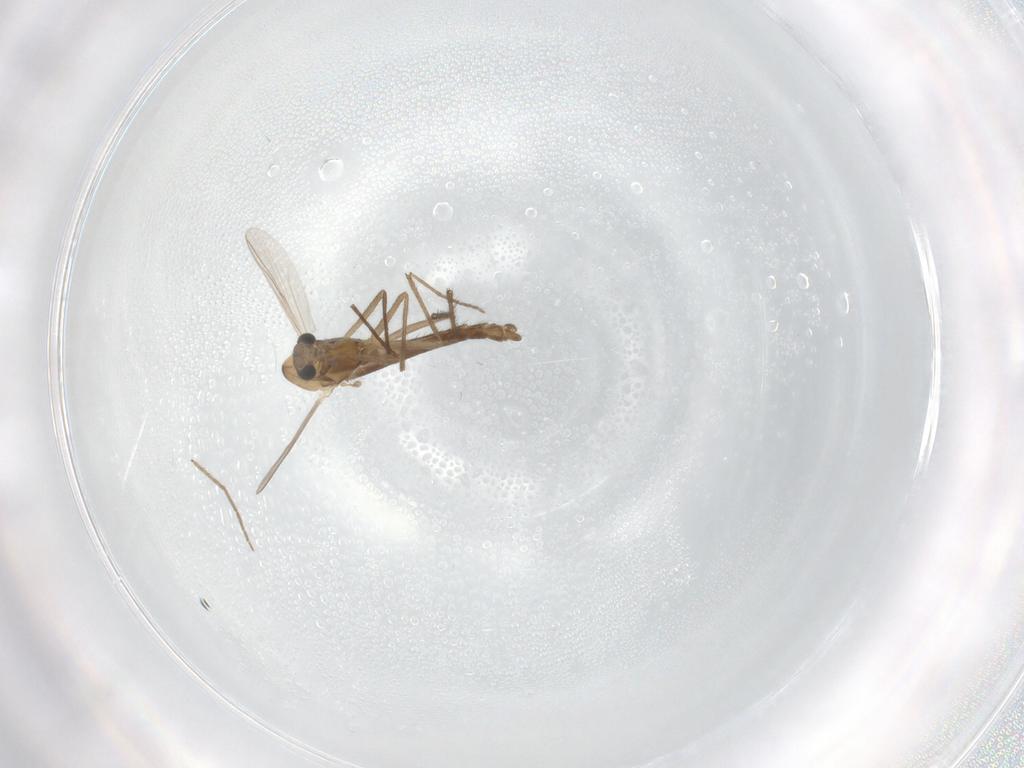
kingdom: Animalia
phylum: Arthropoda
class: Insecta
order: Diptera
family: Chironomidae
